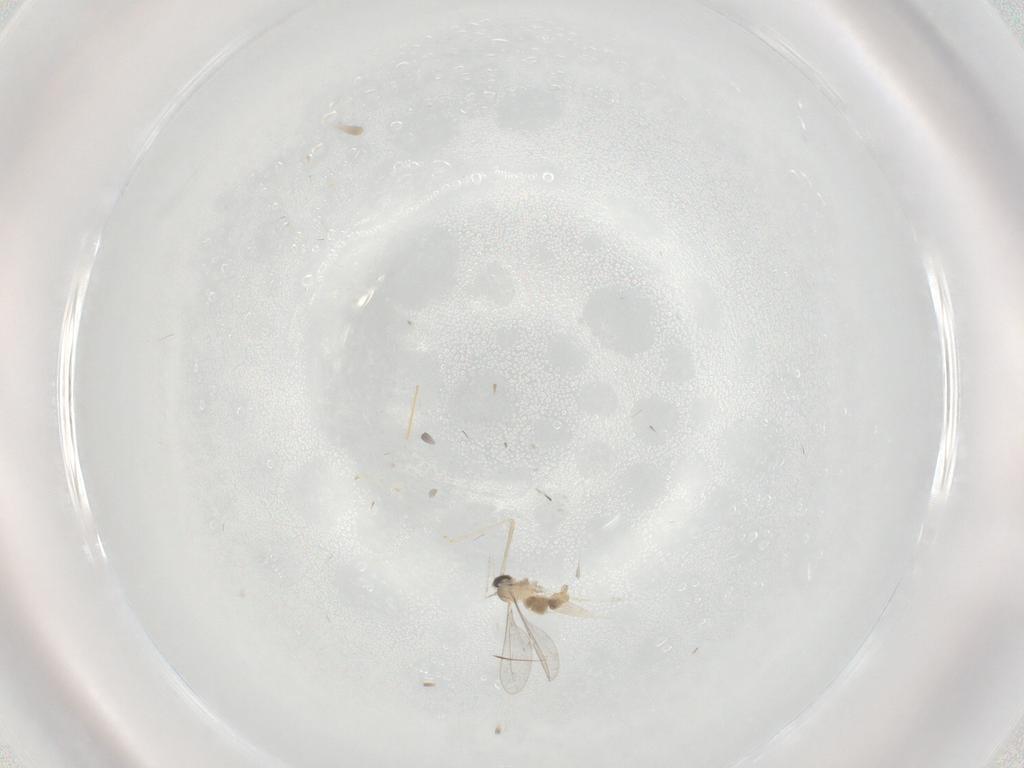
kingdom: Animalia
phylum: Arthropoda
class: Insecta
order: Diptera
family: Cecidomyiidae
